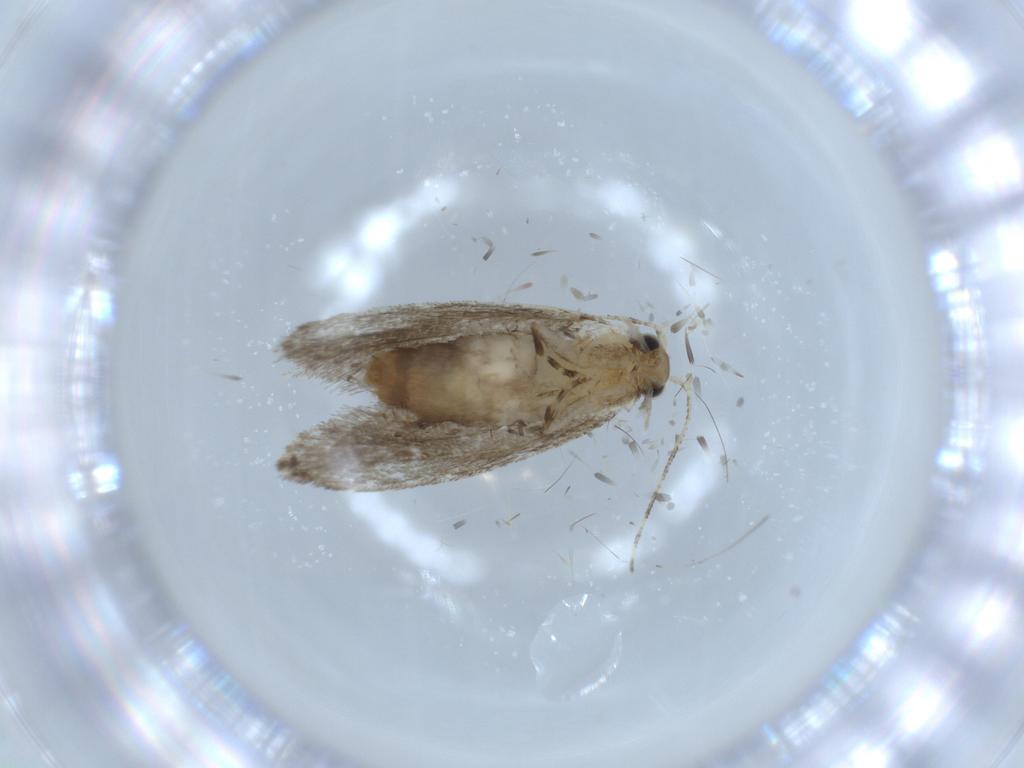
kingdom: Animalia
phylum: Arthropoda
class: Insecta
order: Lepidoptera
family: Tineidae
